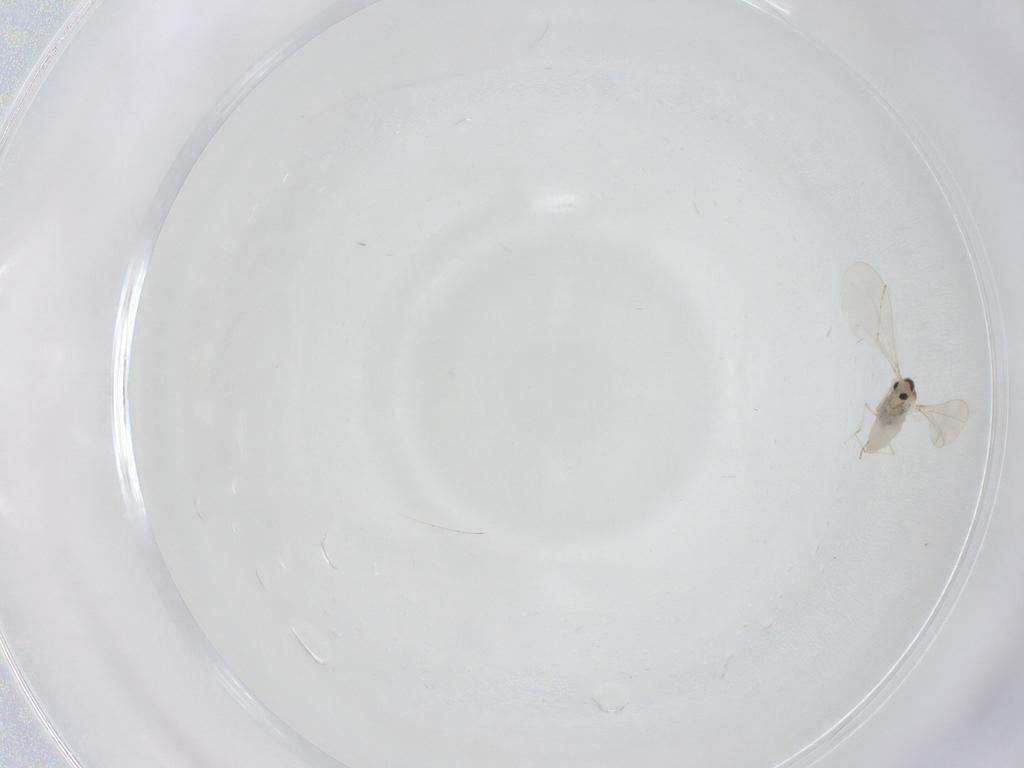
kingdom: Animalia
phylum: Arthropoda
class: Insecta
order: Diptera
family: Cecidomyiidae
